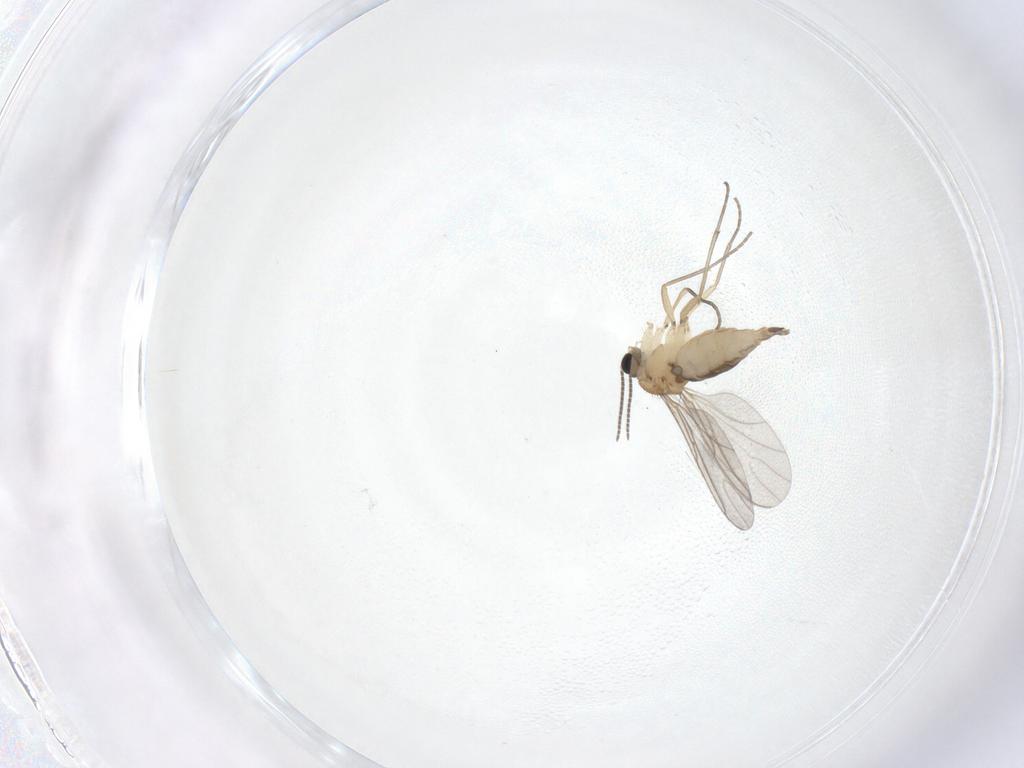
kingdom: Animalia
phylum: Arthropoda
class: Insecta
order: Diptera
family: Sciaridae
